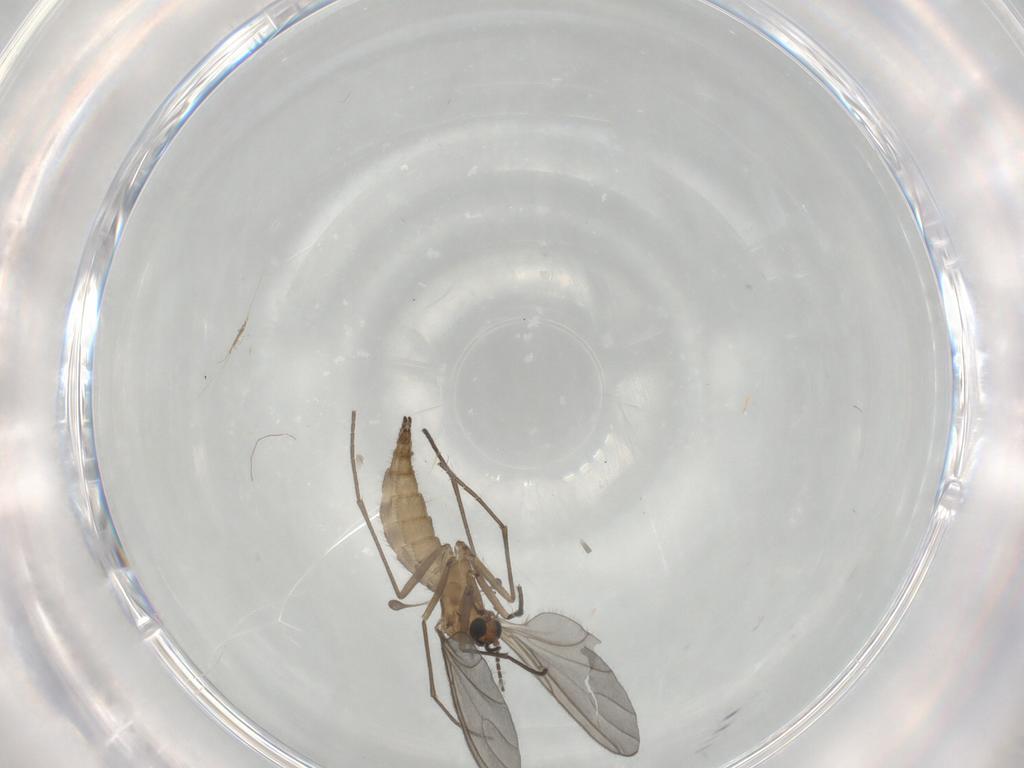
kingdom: Animalia
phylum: Arthropoda
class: Insecta
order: Diptera
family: Sciaridae
